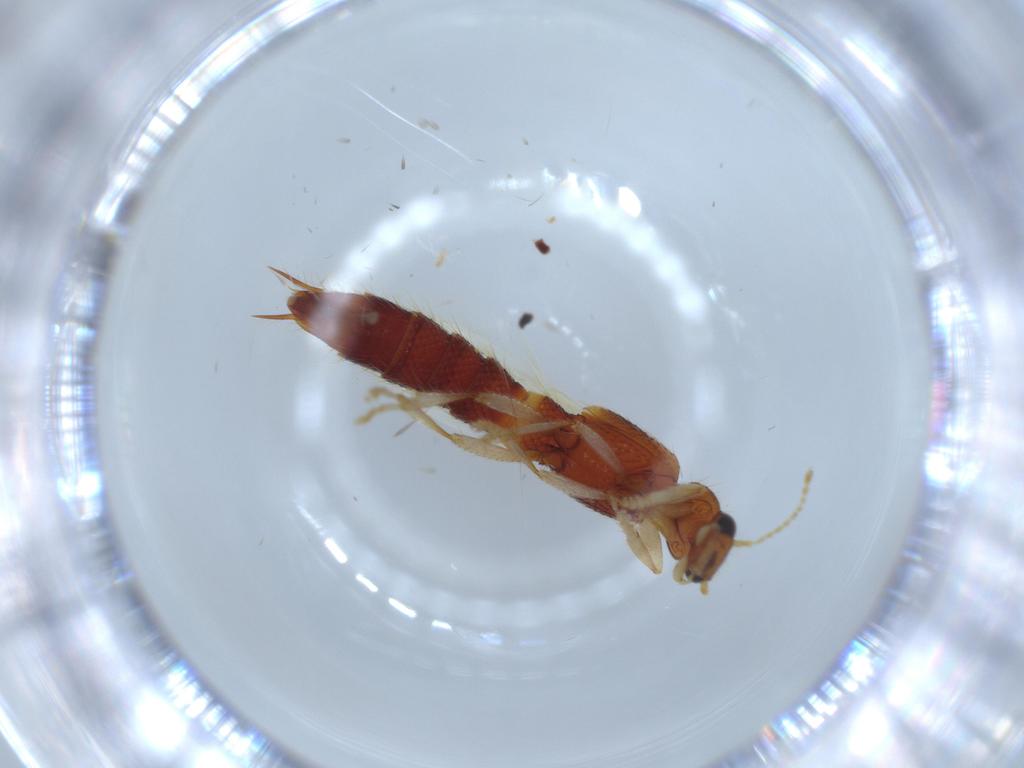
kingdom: Animalia
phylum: Arthropoda
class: Insecta
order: Coleoptera
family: Staphylinidae
